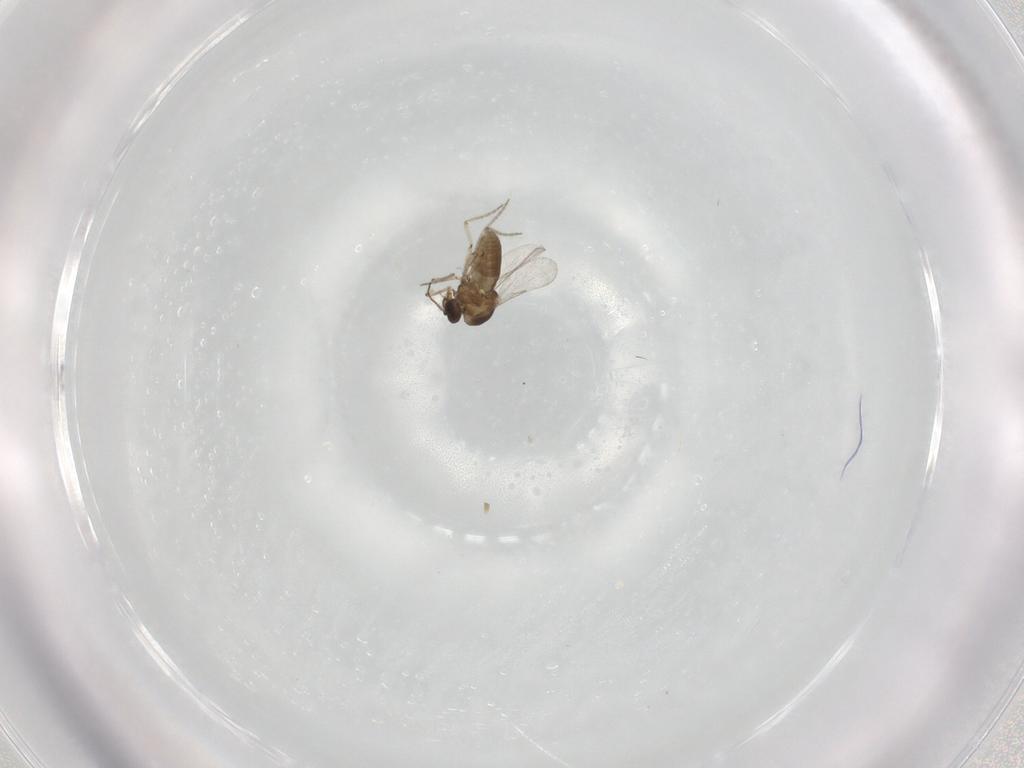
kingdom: Animalia
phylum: Arthropoda
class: Insecta
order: Diptera
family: Ceratopogonidae
